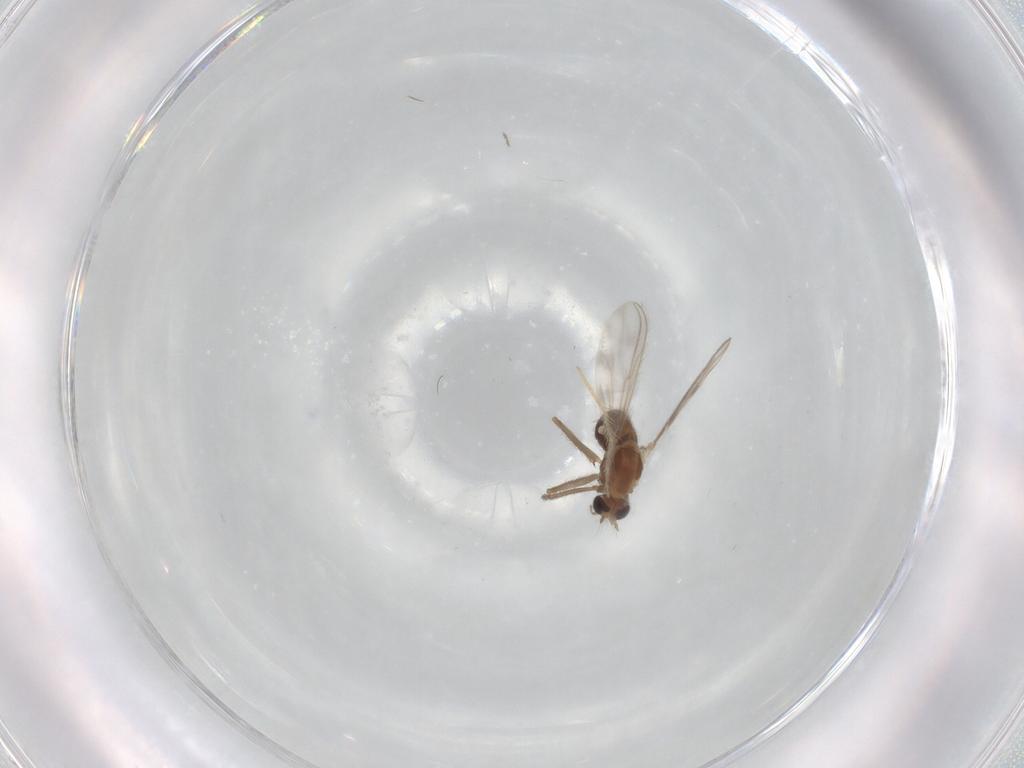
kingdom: Animalia
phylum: Arthropoda
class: Insecta
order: Diptera
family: Chironomidae
